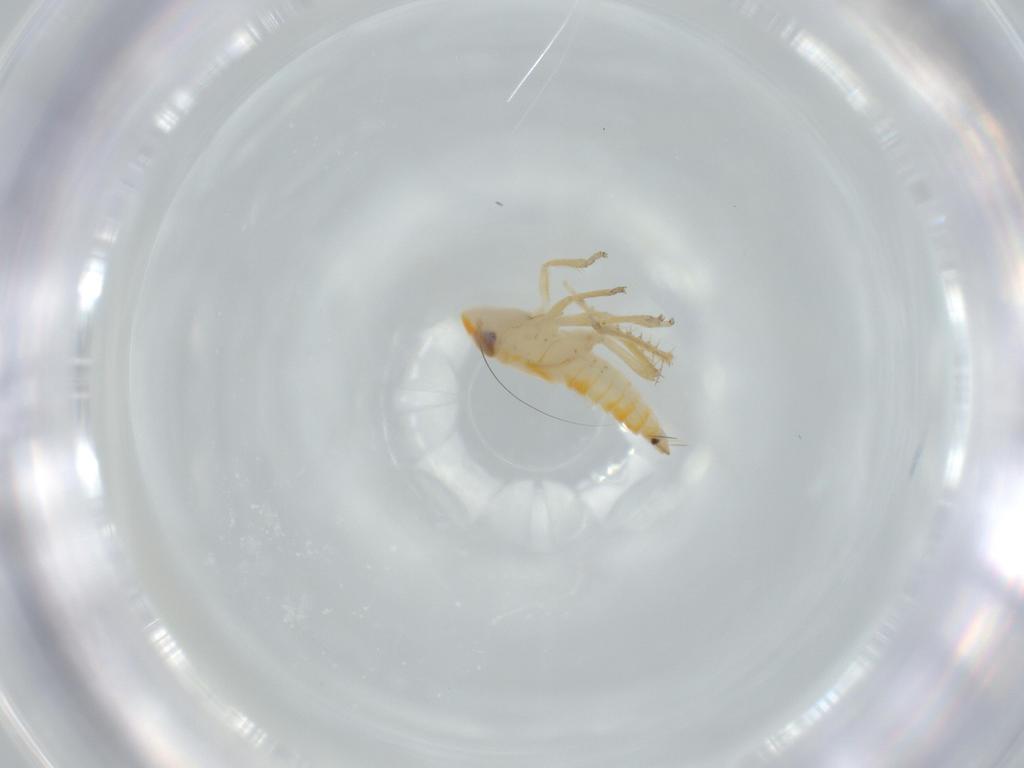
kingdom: Animalia
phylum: Arthropoda
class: Insecta
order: Hemiptera
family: Cicadellidae
